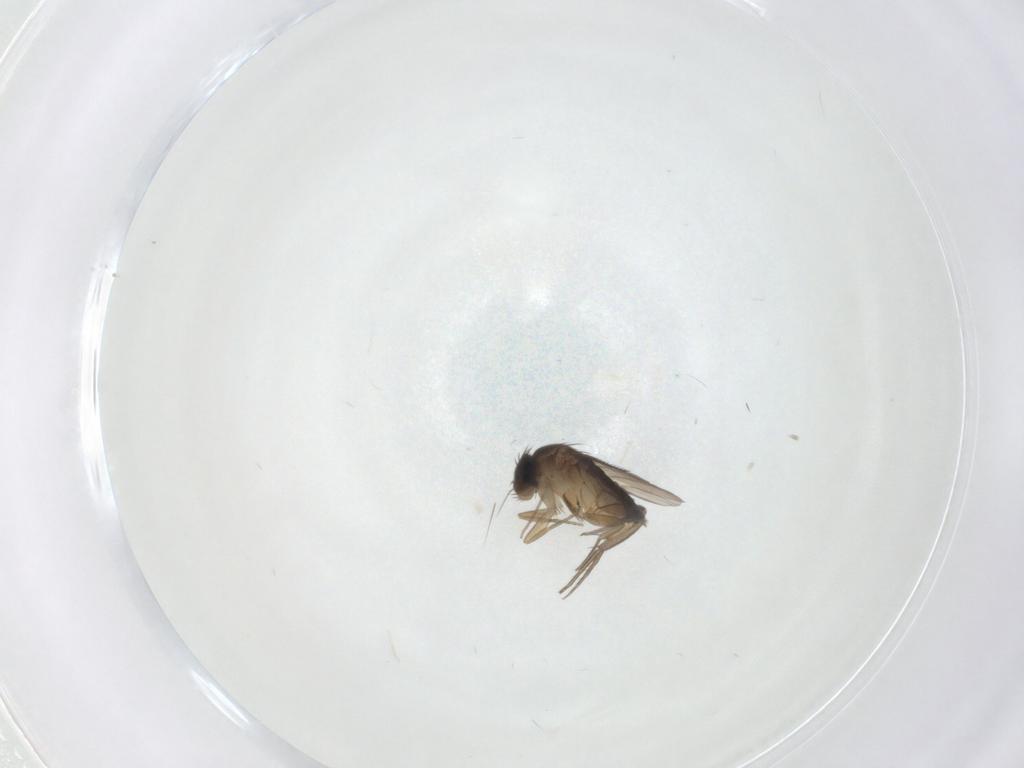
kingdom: Animalia
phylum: Arthropoda
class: Insecta
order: Diptera
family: Phoridae
